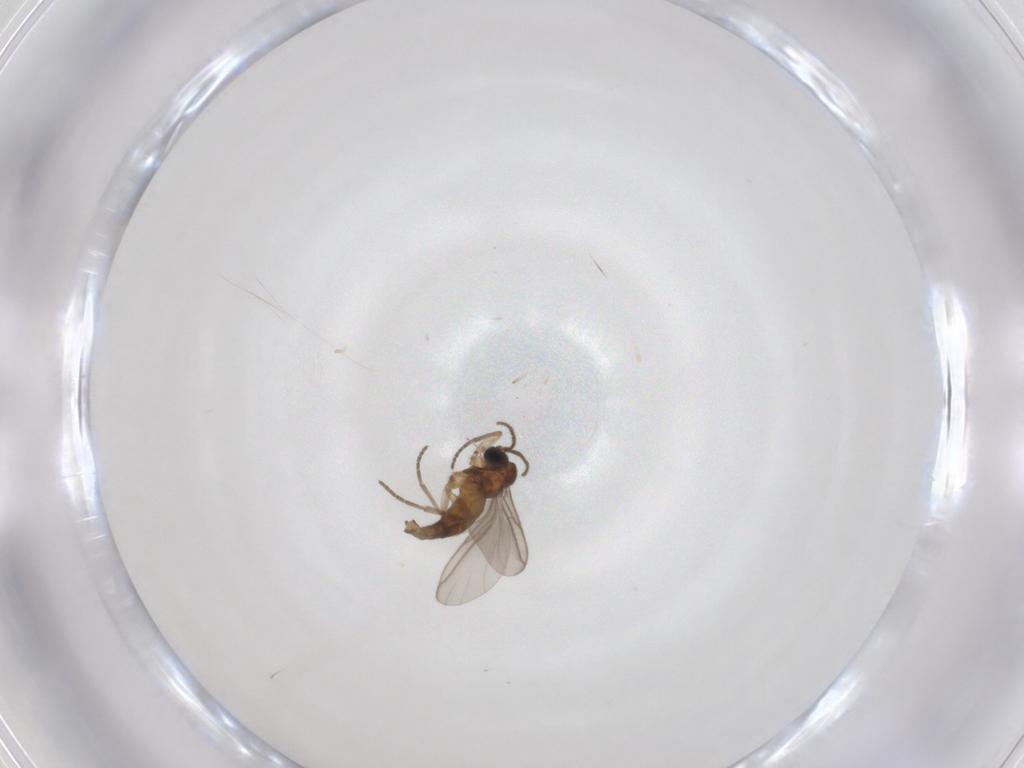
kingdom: Animalia
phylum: Arthropoda
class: Insecta
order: Diptera
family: Sciaridae
